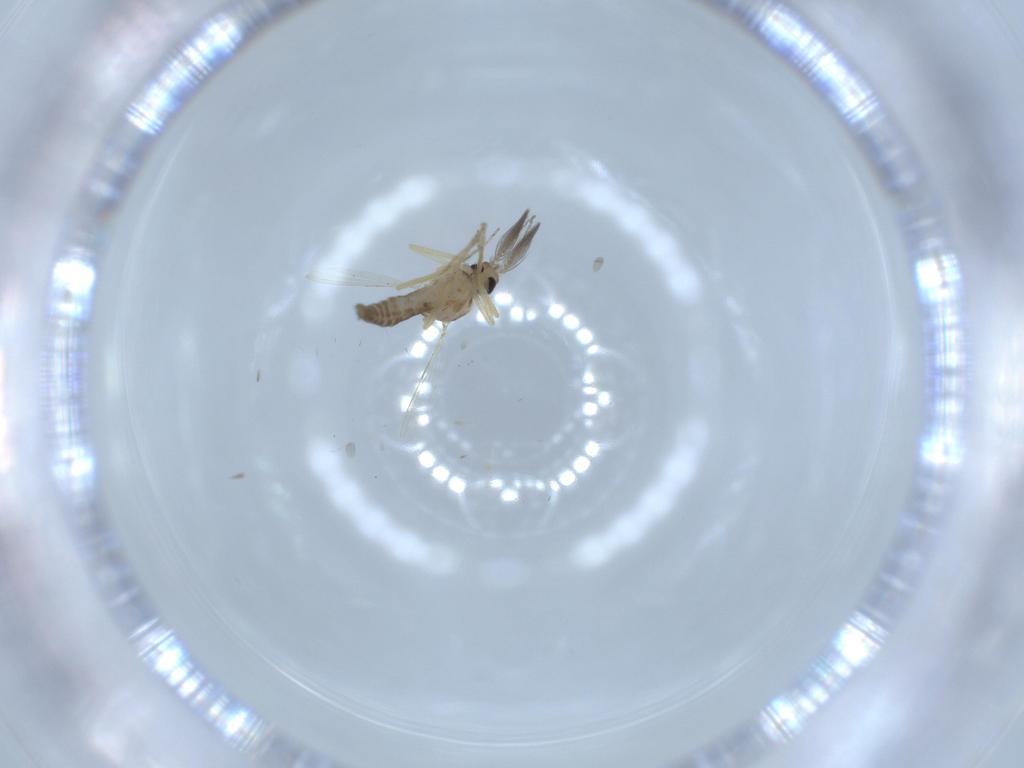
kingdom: Animalia
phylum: Arthropoda
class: Insecta
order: Diptera
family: Ceratopogonidae
